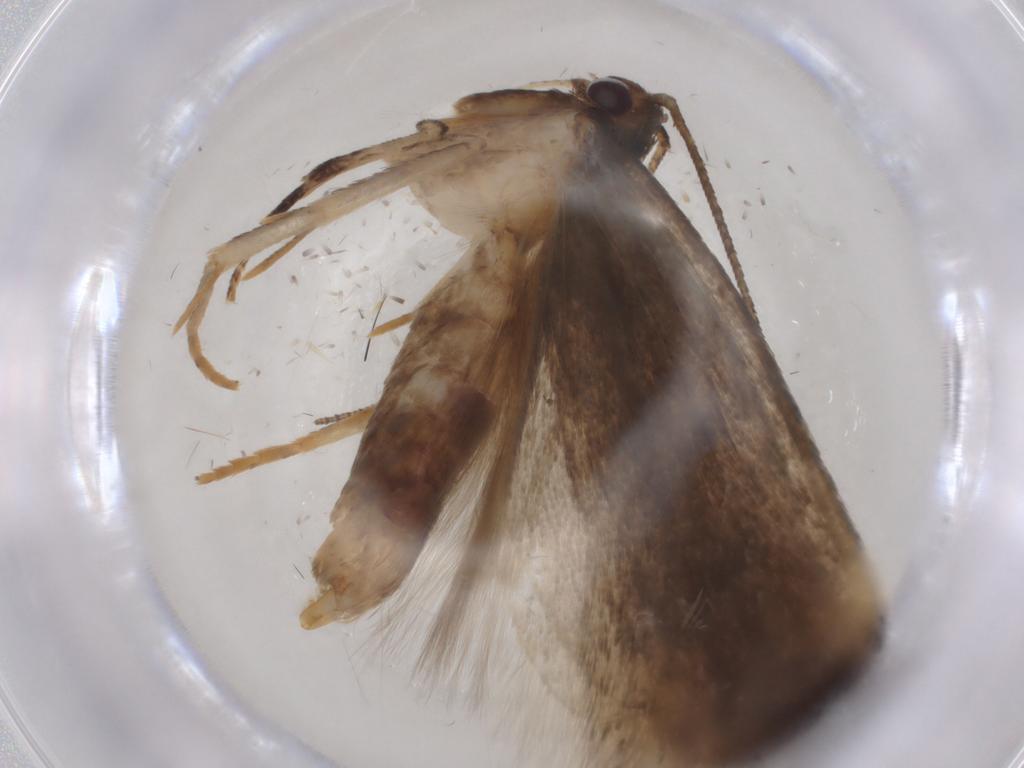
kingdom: Animalia
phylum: Arthropoda
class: Insecta
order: Lepidoptera
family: Gelechiidae
